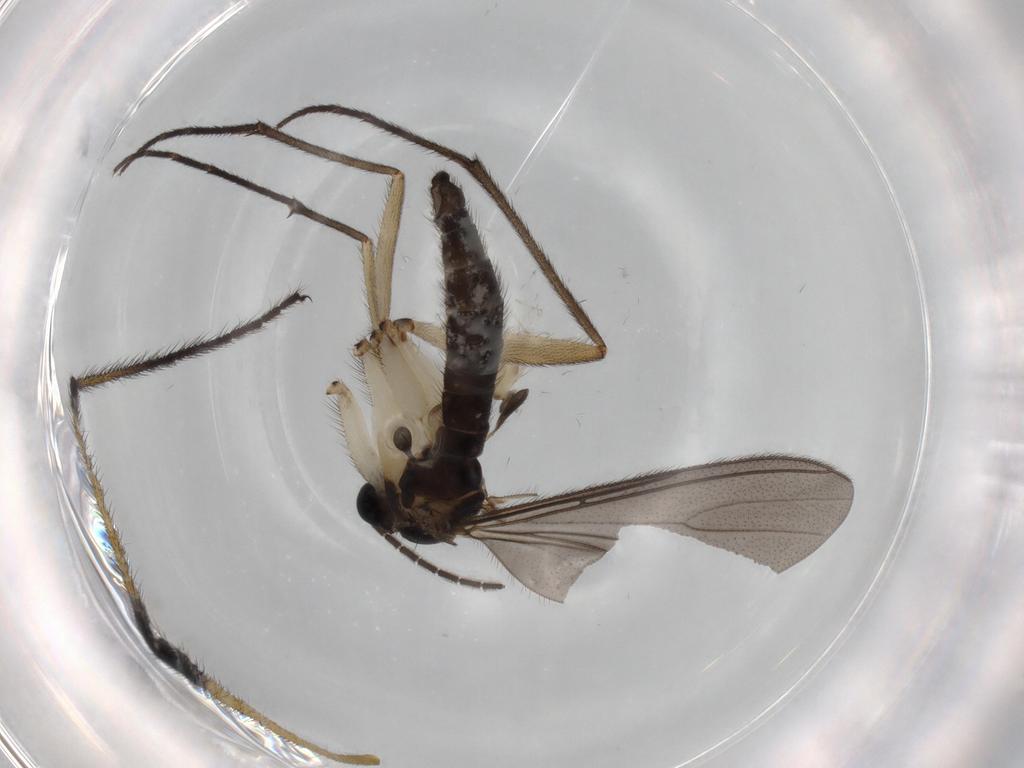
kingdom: Animalia
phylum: Arthropoda
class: Insecta
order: Diptera
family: Sciaridae
